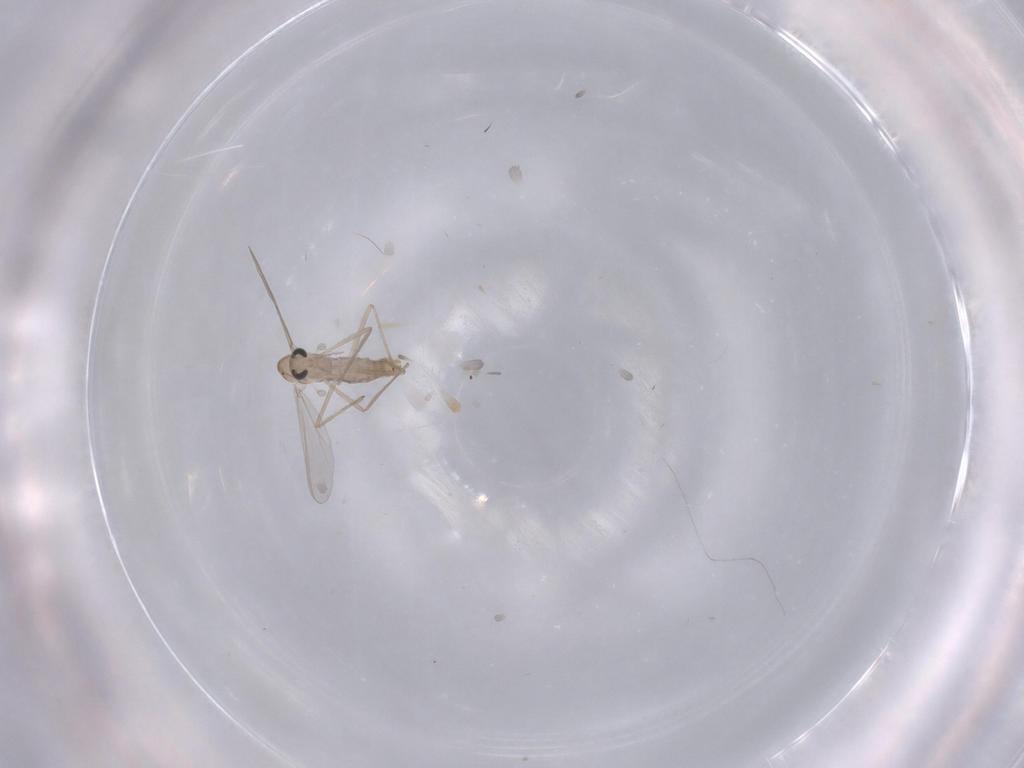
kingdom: Animalia
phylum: Arthropoda
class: Insecta
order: Diptera
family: Chironomidae
